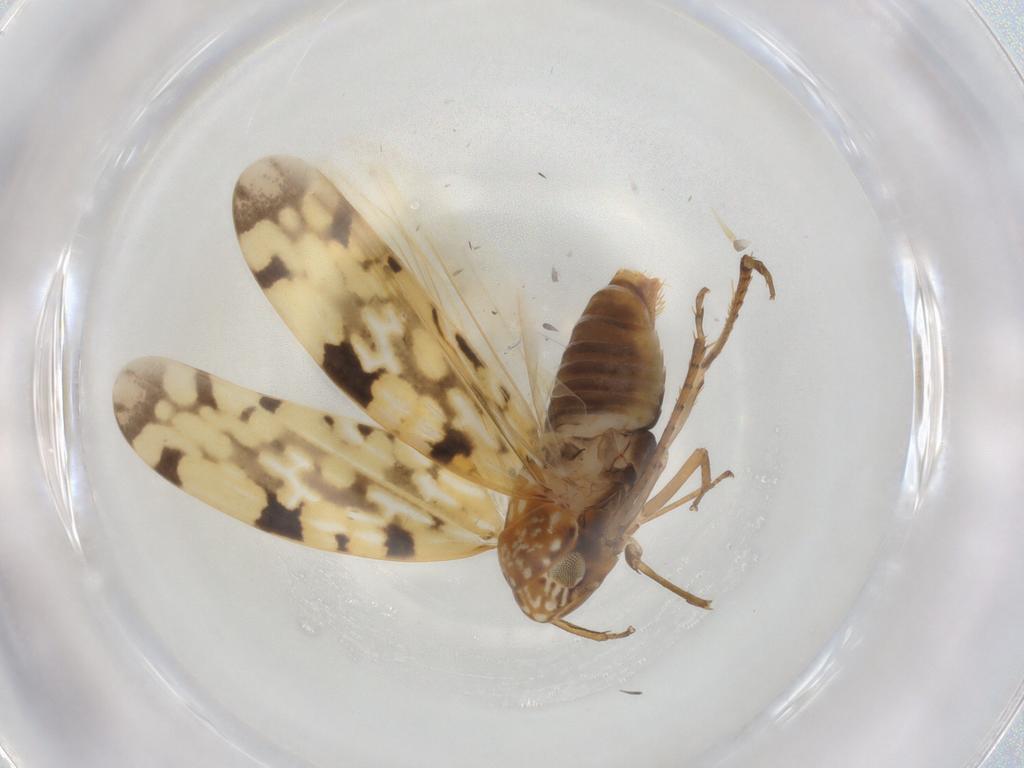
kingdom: Animalia
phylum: Arthropoda
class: Insecta
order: Hemiptera
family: Cicadellidae
